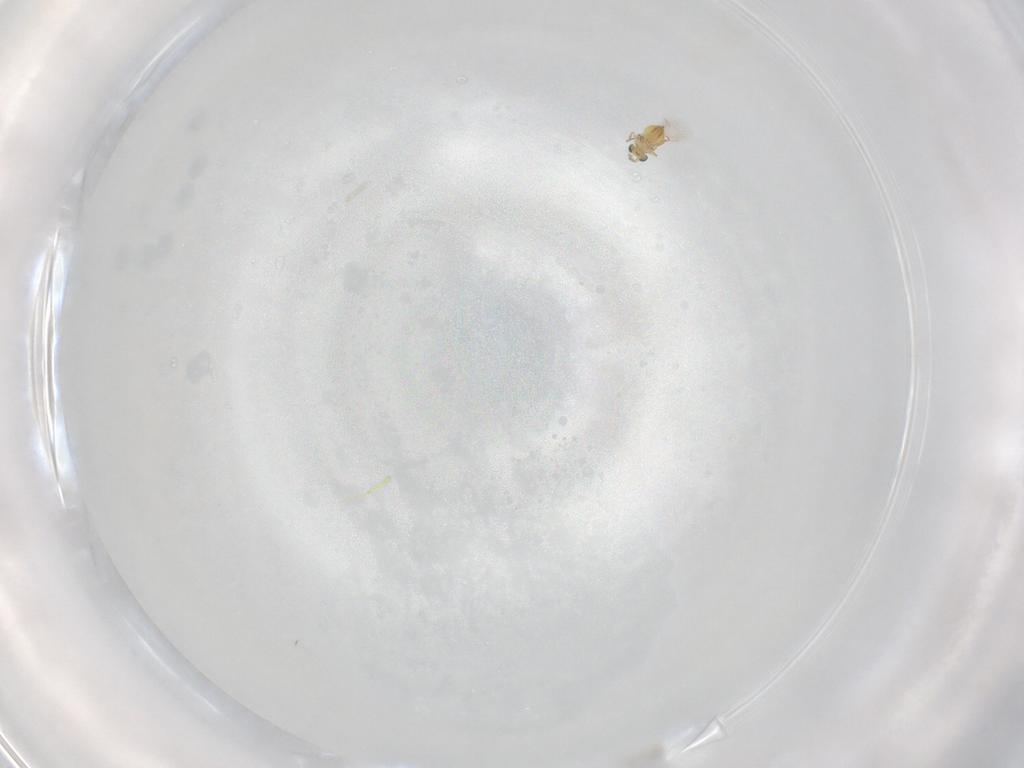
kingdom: Animalia
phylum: Arthropoda
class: Insecta
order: Hymenoptera
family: Trichogrammatidae
